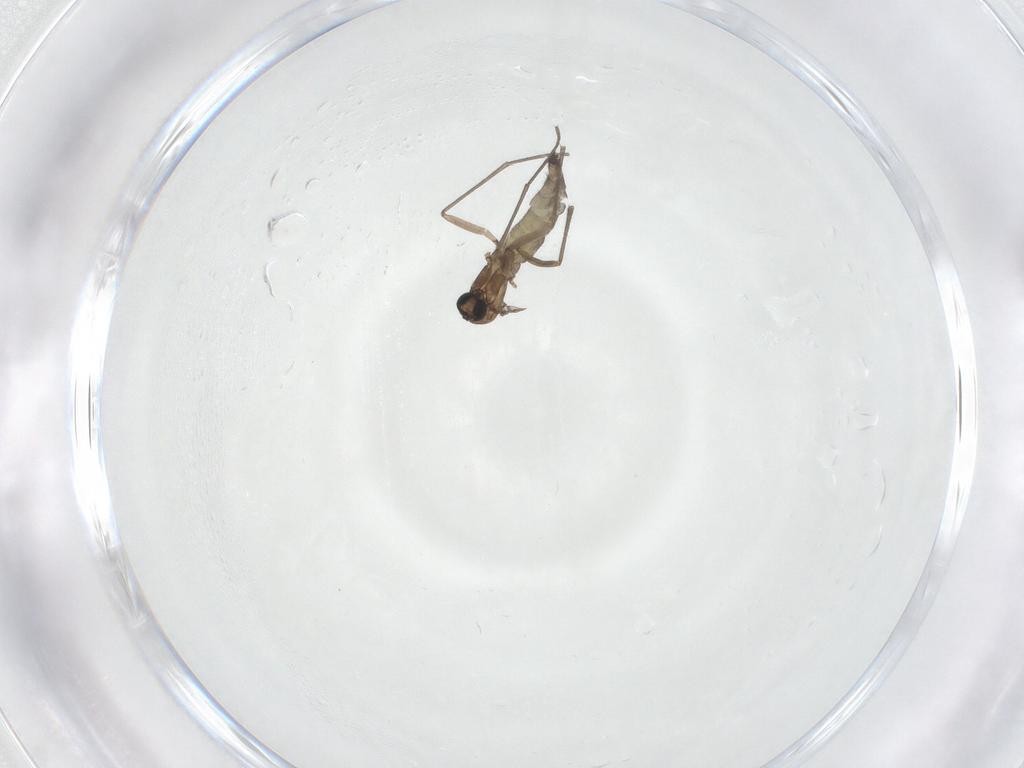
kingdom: Animalia
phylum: Arthropoda
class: Insecta
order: Diptera
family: Sciaridae
